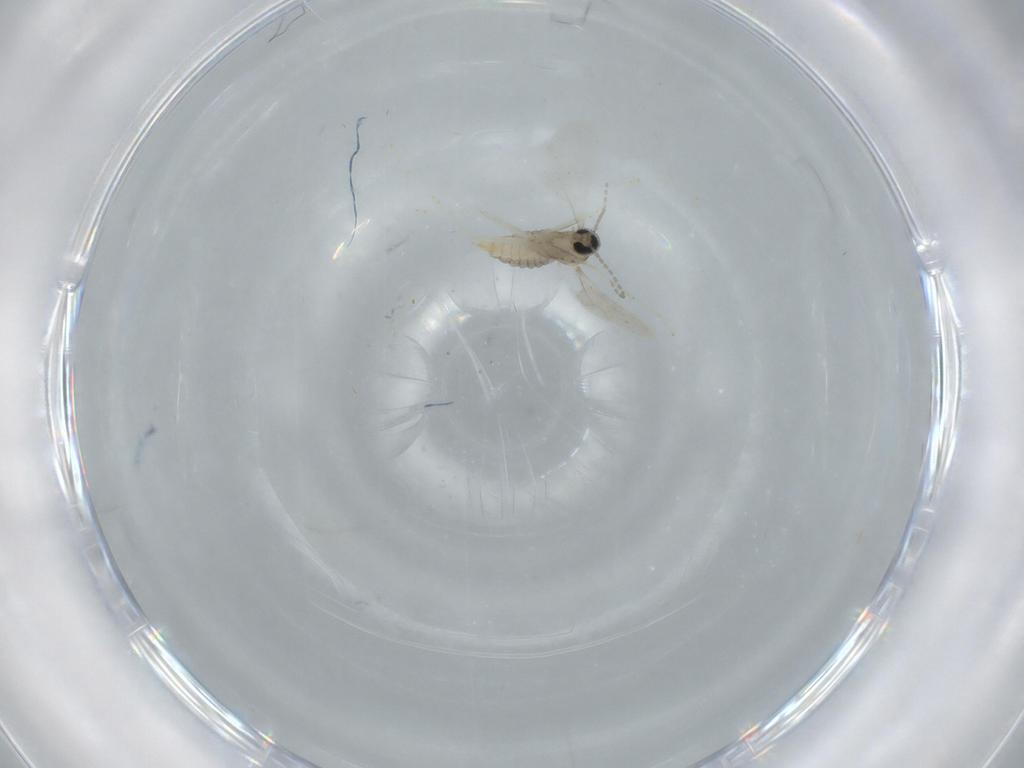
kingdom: Animalia
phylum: Arthropoda
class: Insecta
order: Diptera
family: Cecidomyiidae
